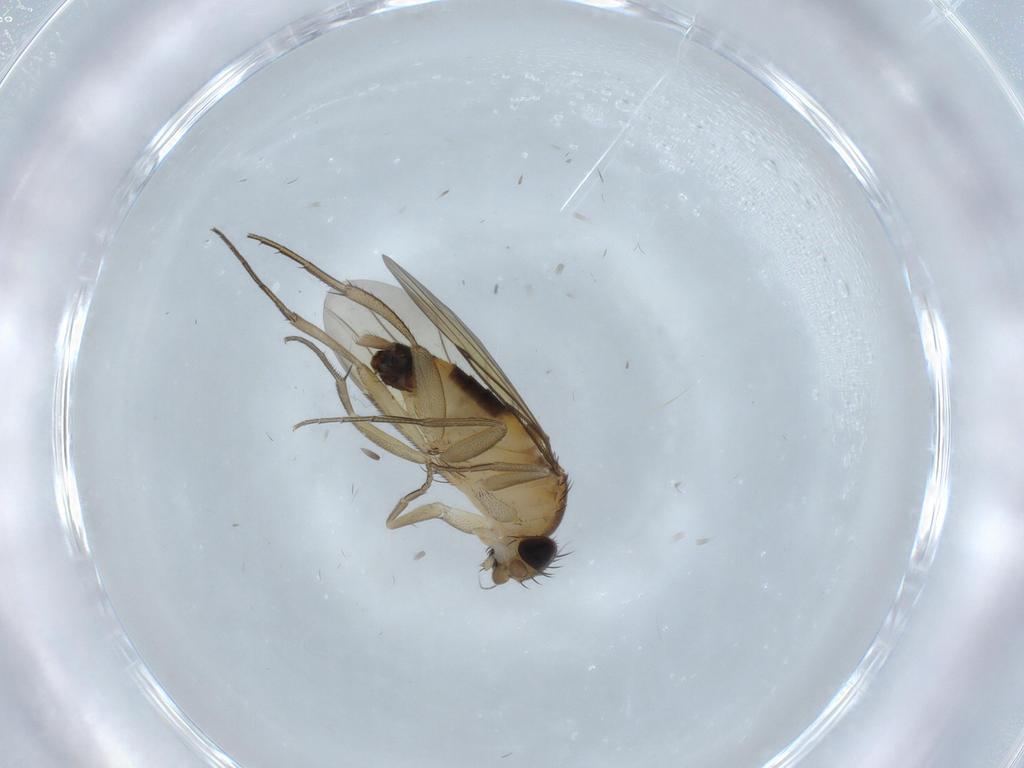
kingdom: Animalia
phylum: Arthropoda
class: Insecta
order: Diptera
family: Phoridae
